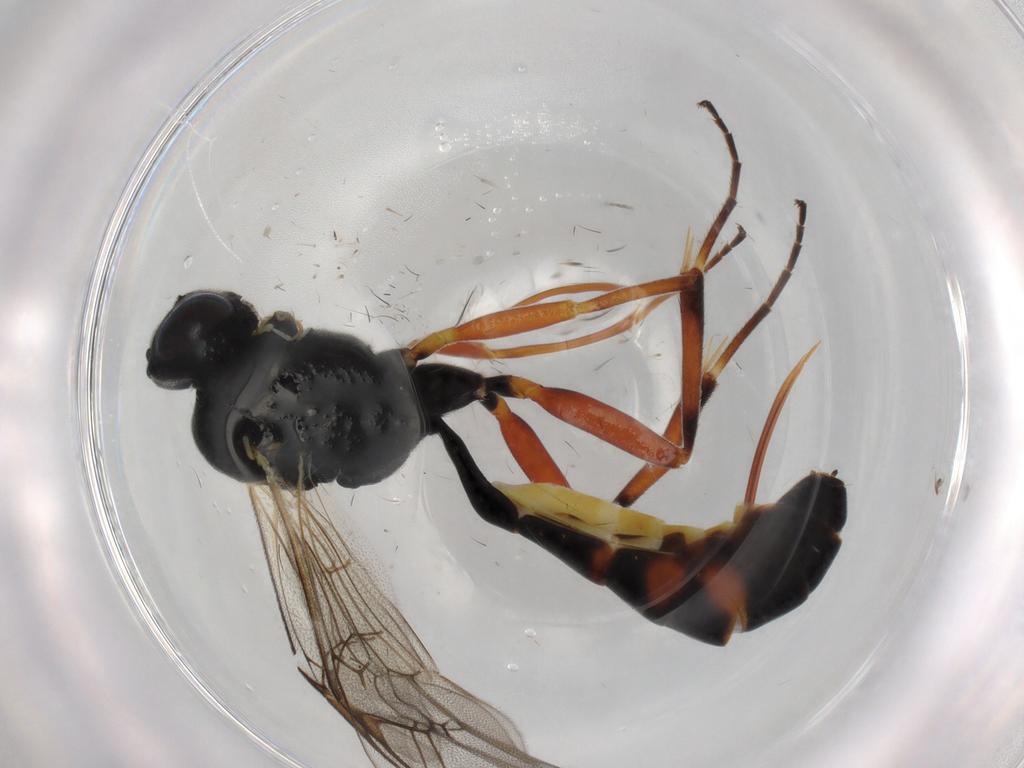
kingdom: Animalia
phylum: Arthropoda
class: Insecta
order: Hymenoptera
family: Ichneumonidae
